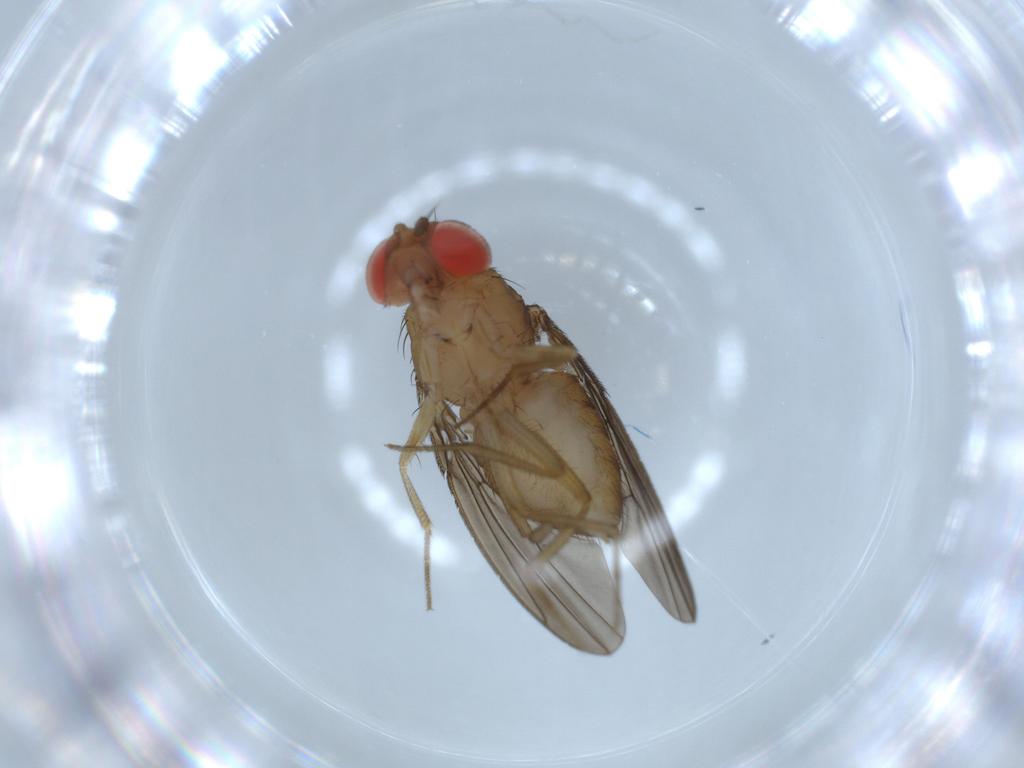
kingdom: Animalia
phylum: Arthropoda
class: Insecta
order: Diptera
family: Drosophilidae
